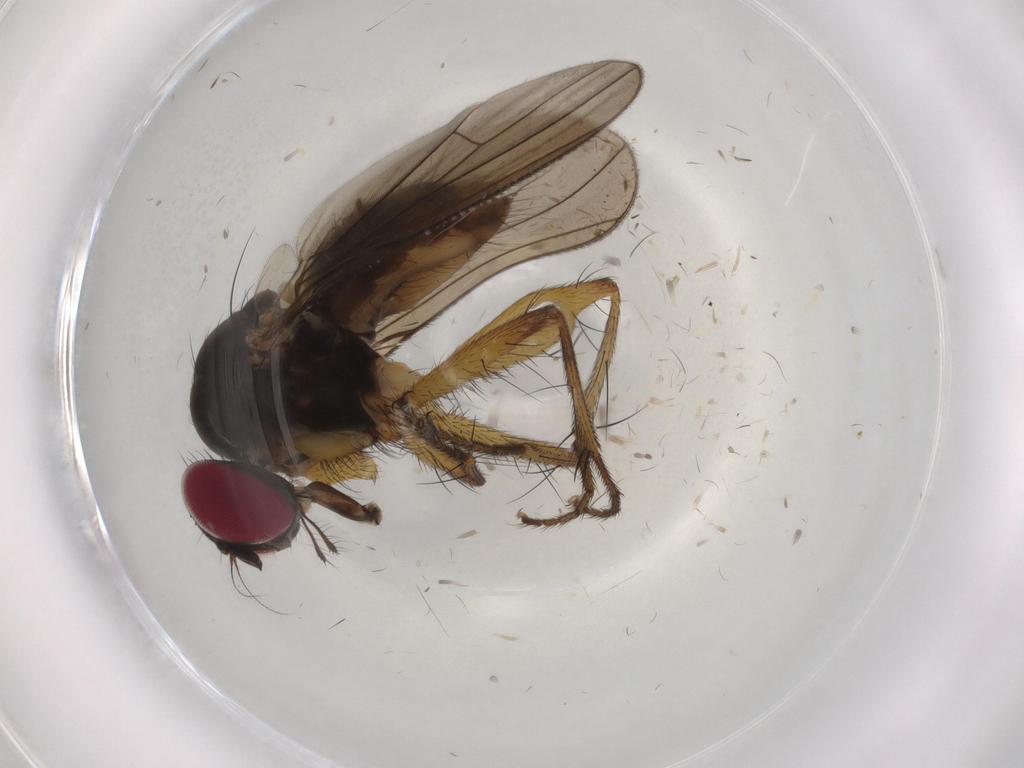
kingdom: Animalia
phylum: Arthropoda
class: Insecta
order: Diptera
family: Anthomyiidae
